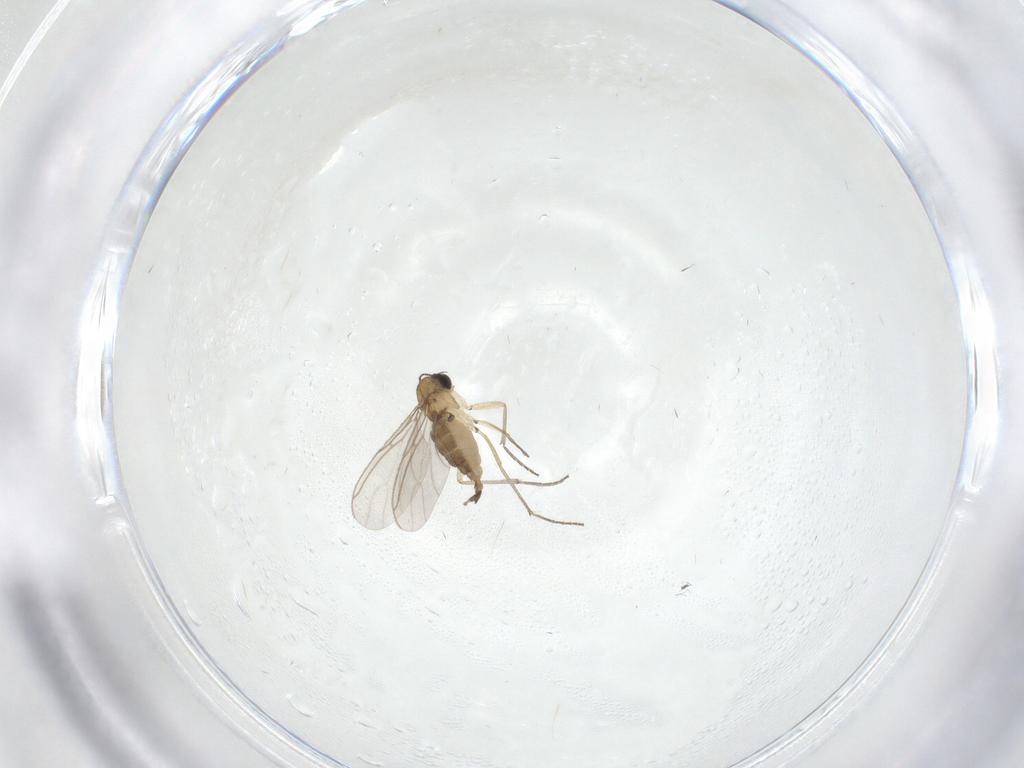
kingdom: Animalia
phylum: Arthropoda
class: Insecta
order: Diptera
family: Sciaridae
